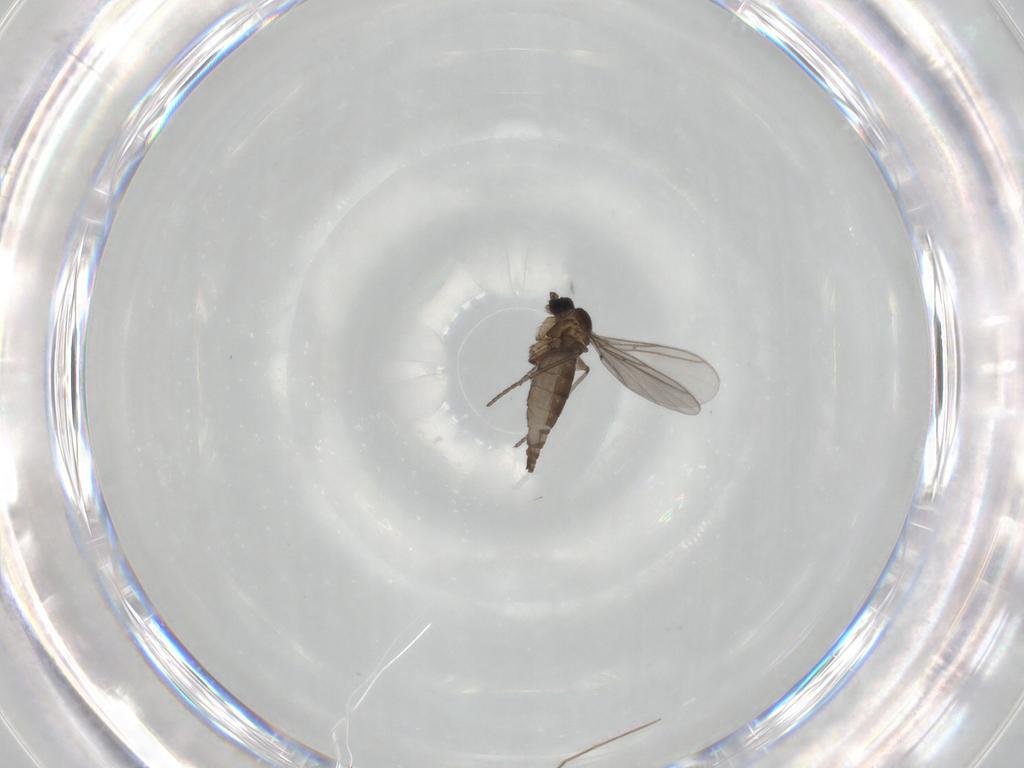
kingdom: Animalia
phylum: Arthropoda
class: Insecta
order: Diptera
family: Sciaridae
